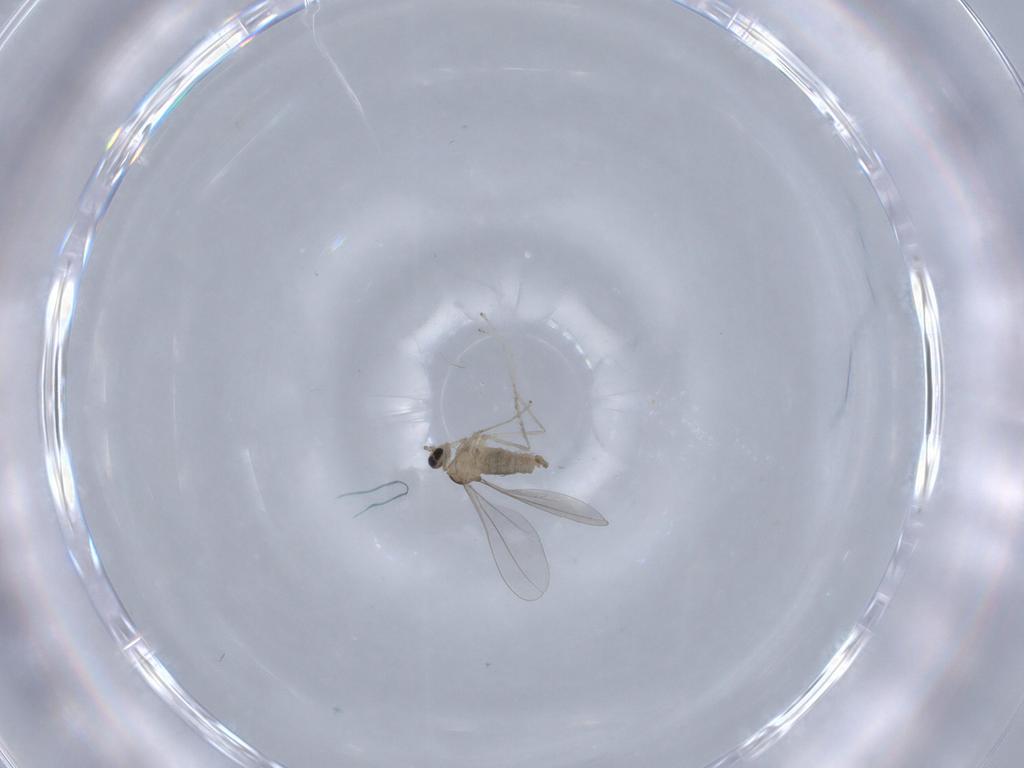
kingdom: Animalia
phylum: Arthropoda
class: Insecta
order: Diptera
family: Cecidomyiidae
